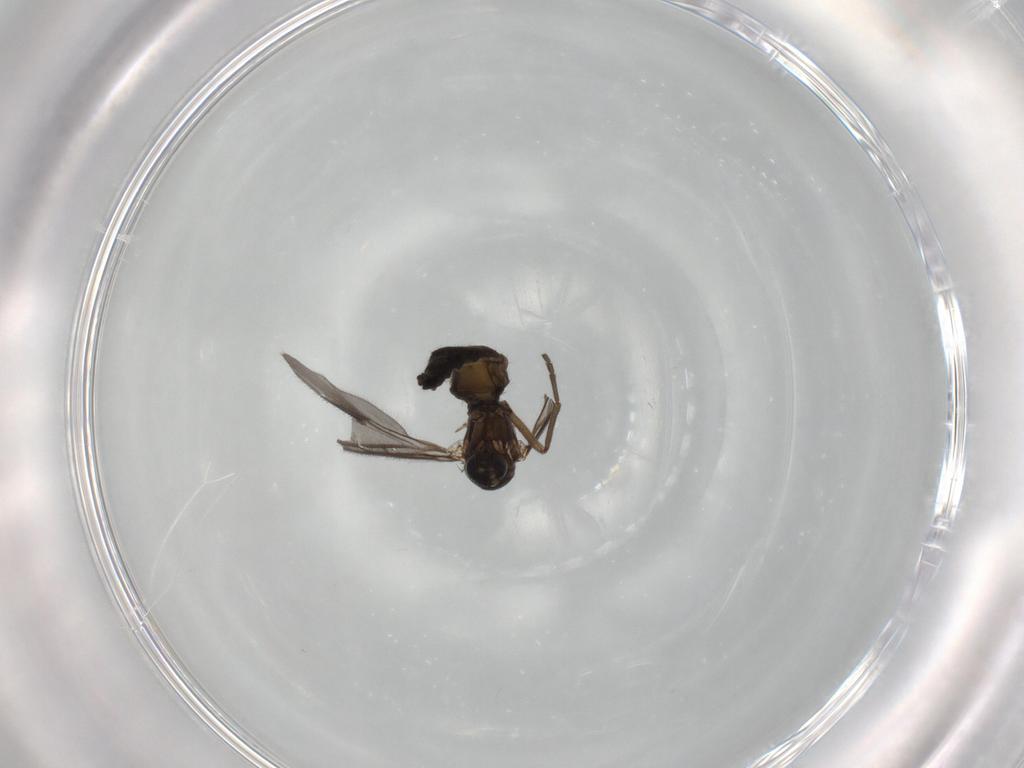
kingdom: Animalia
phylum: Arthropoda
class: Insecta
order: Diptera
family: Sciaridae
